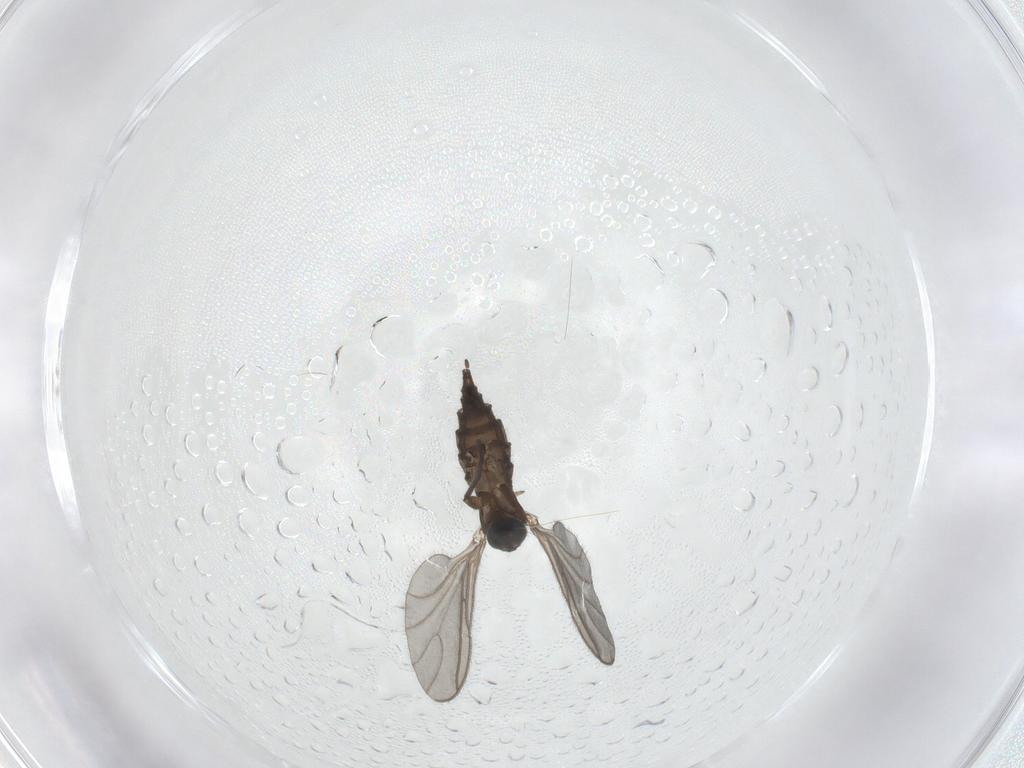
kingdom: Animalia
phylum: Arthropoda
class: Insecta
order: Diptera
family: Sciaridae
